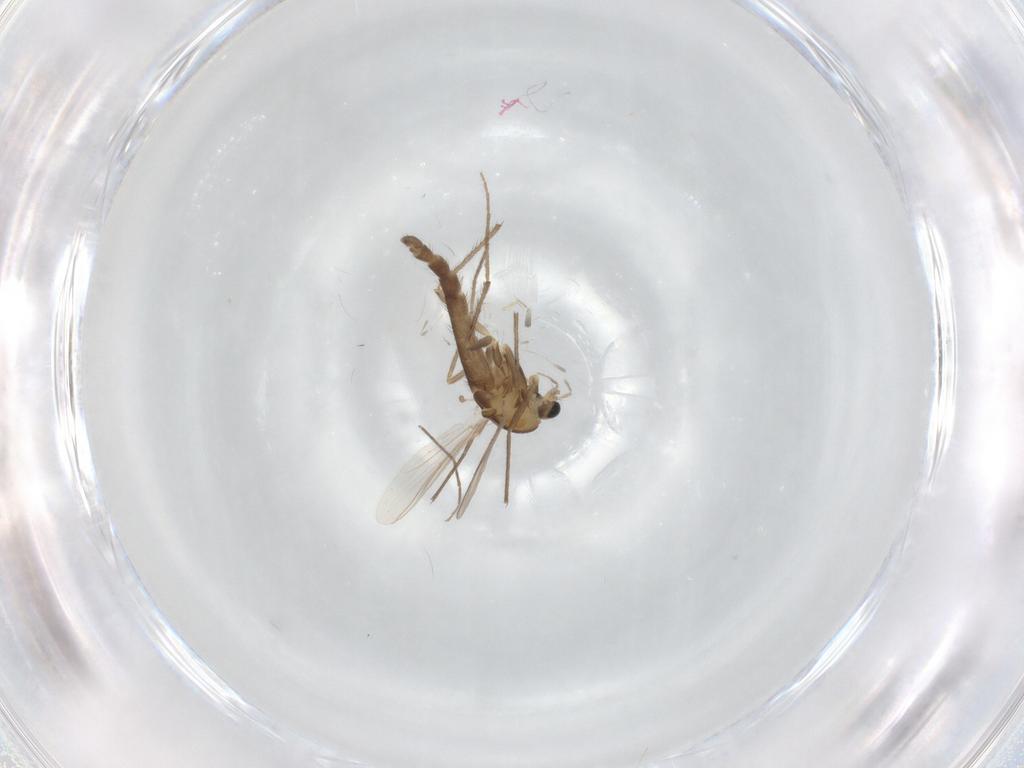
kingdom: Animalia
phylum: Arthropoda
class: Insecta
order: Diptera
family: Chironomidae
